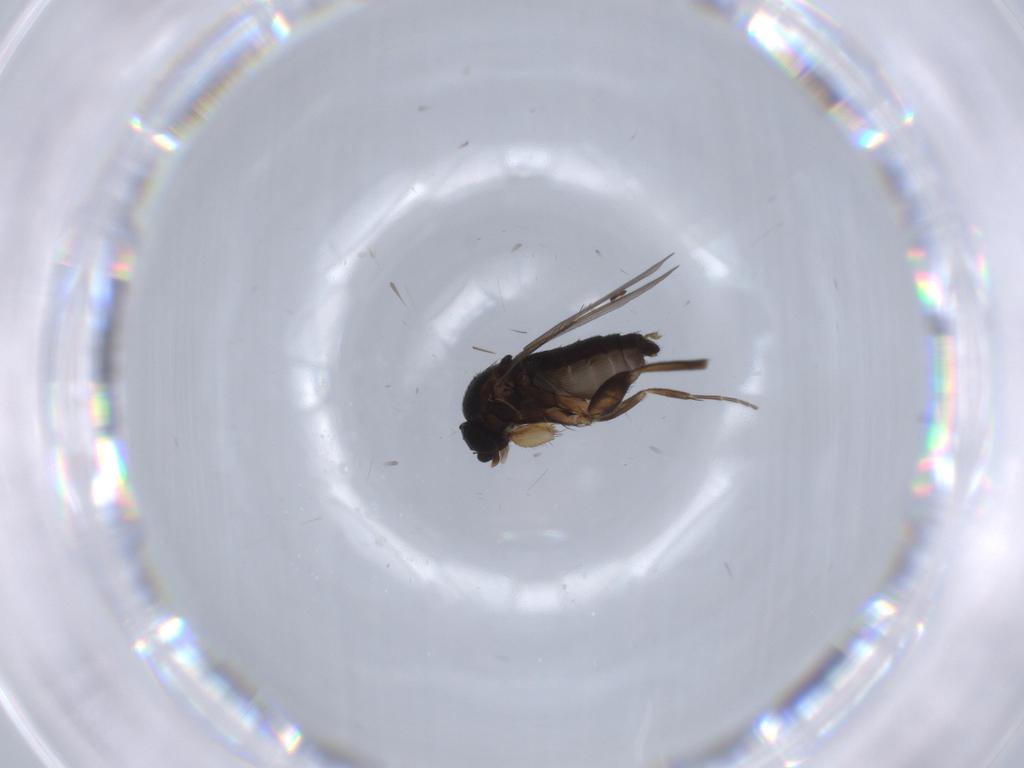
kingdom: Animalia
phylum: Arthropoda
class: Insecta
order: Diptera
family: Phoridae
